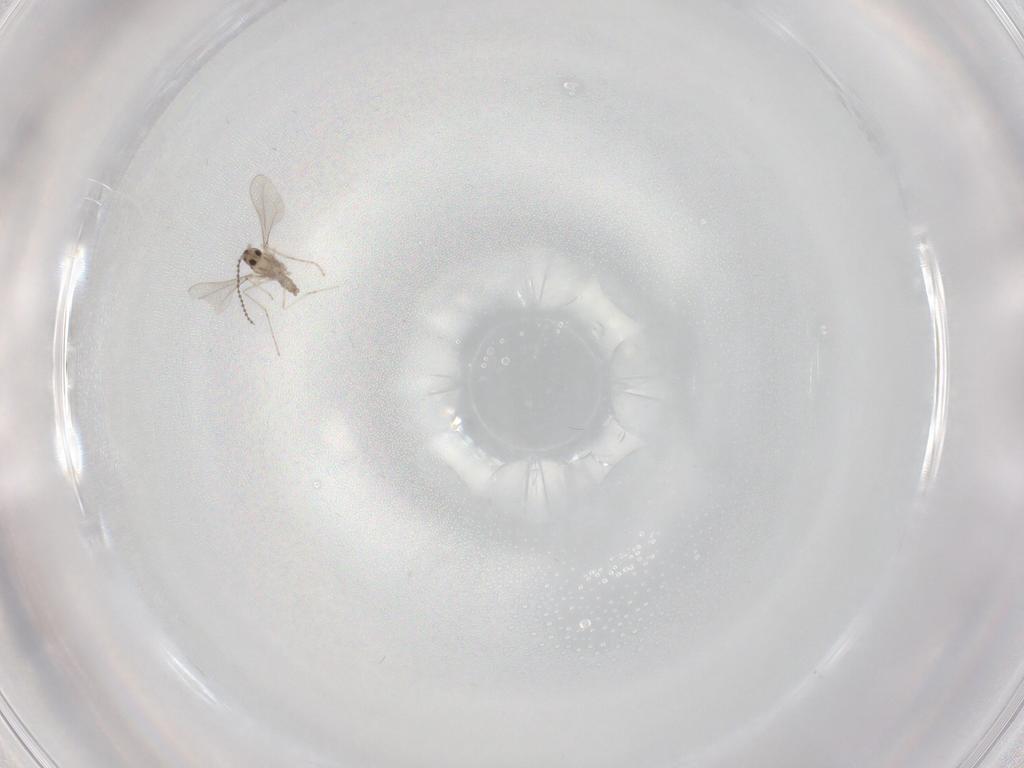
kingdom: Animalia
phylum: Arthropoda
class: Insecta
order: Diptera
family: Cecidomyiidae
